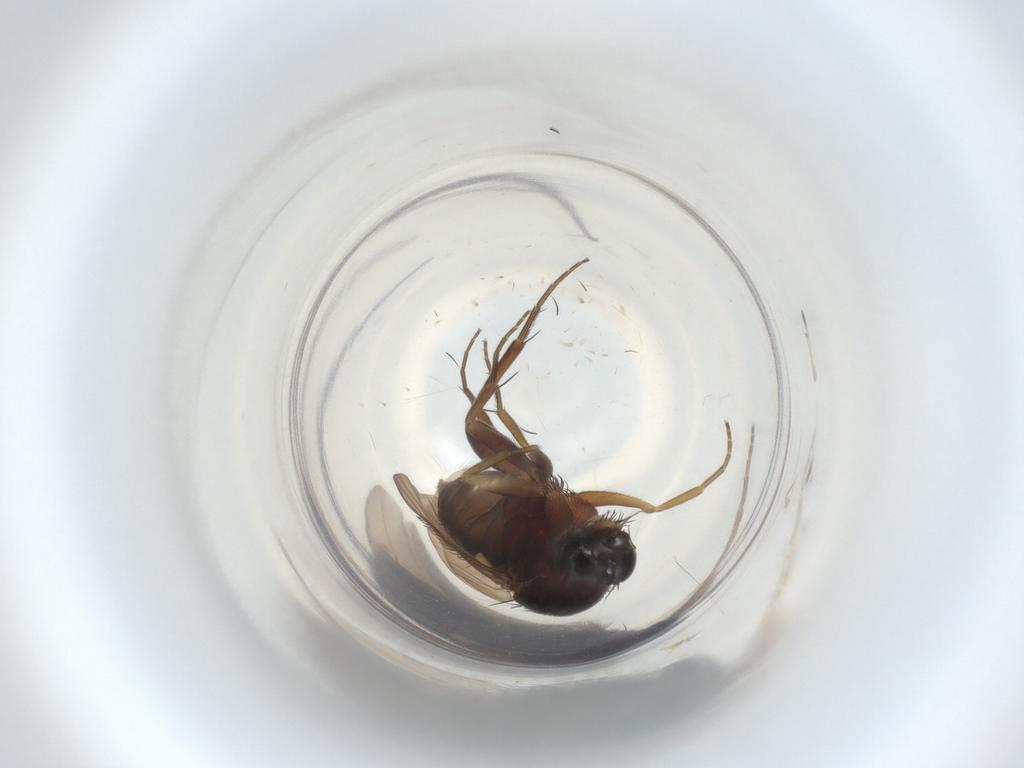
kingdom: Animalia
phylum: Arthropoda
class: Insecta
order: Diptera
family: Phoridae
